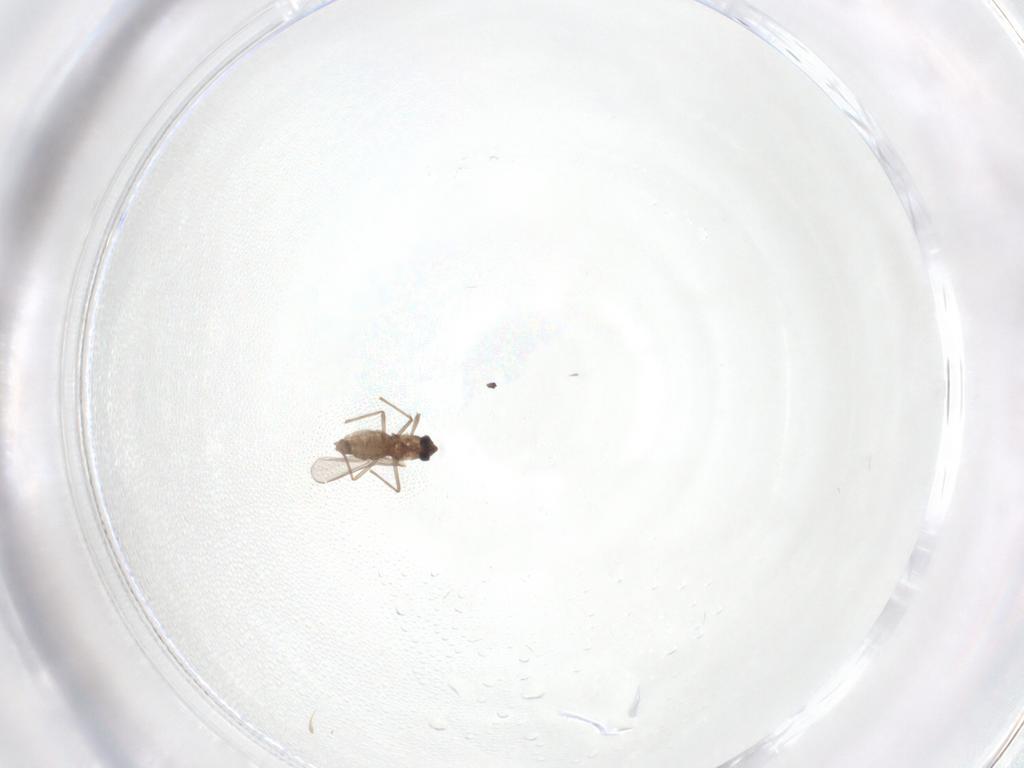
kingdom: Animalia
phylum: Arthropoda
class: Insecta
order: Diptera
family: Chironomidae
